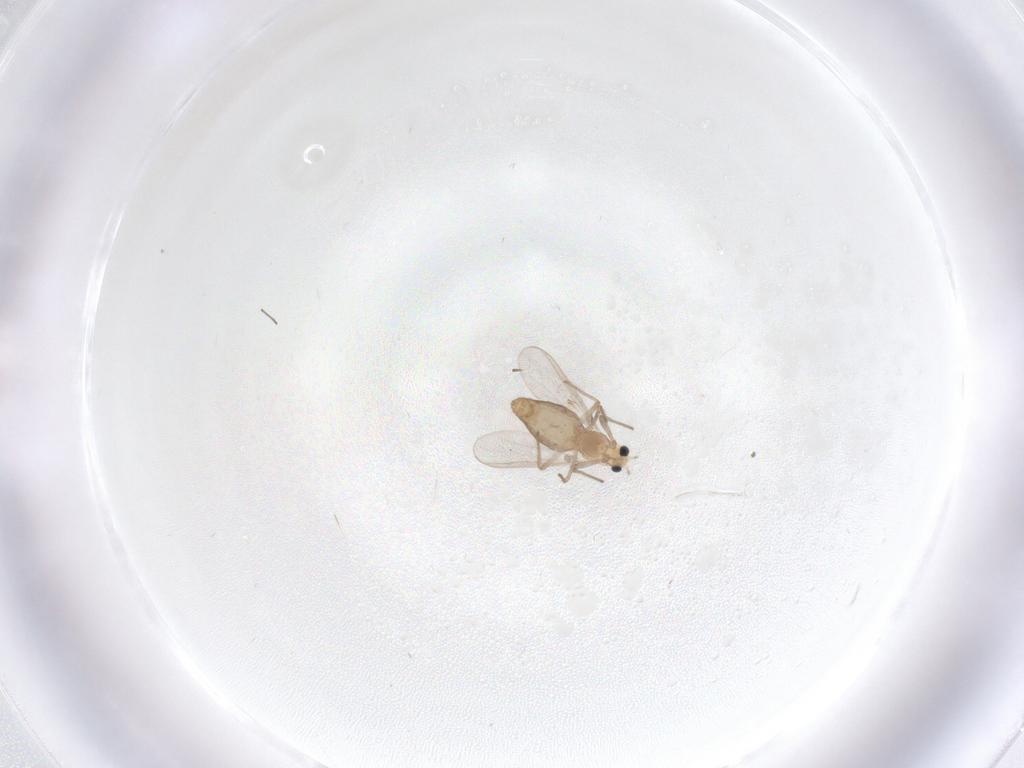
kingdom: Animalia
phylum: Arthropoda
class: Insecta
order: Diptera
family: Chironomidae
